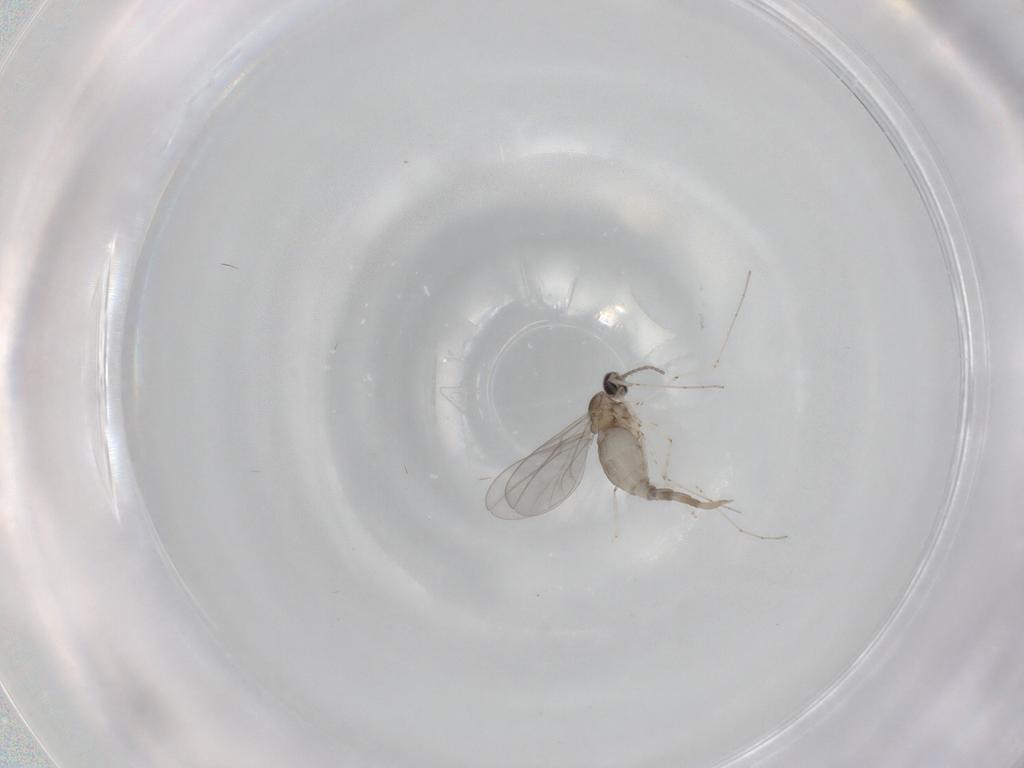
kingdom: Animalia
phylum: Arthropoda
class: Insecta
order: Diptera
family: Cecidomyiidae
